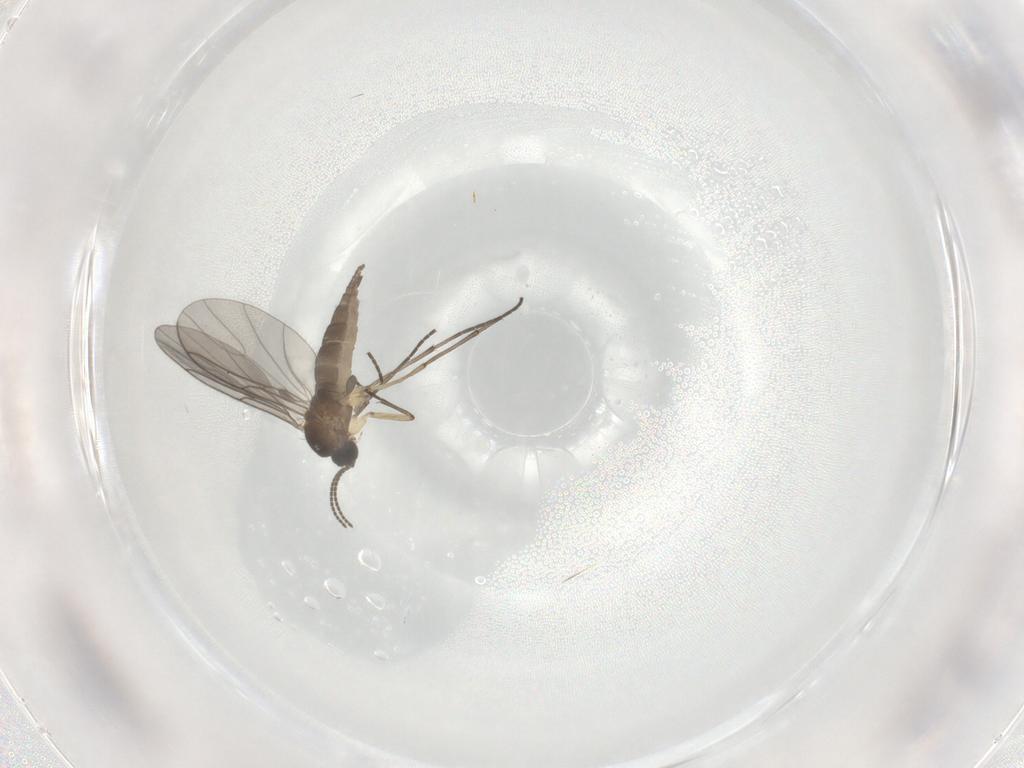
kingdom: Animalia
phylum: Arthropoda
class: Insecta
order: Diptera
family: Sciaridae
